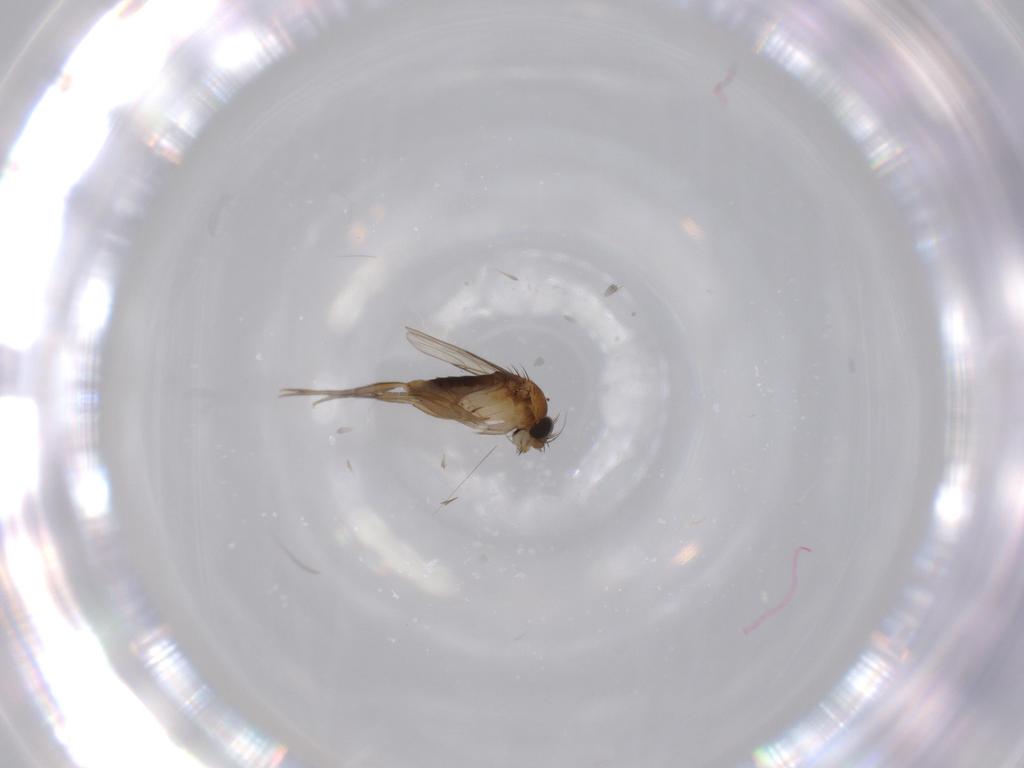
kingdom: Animalia
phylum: Arthropoda
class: Insecta
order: Diptera
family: Phoridae
